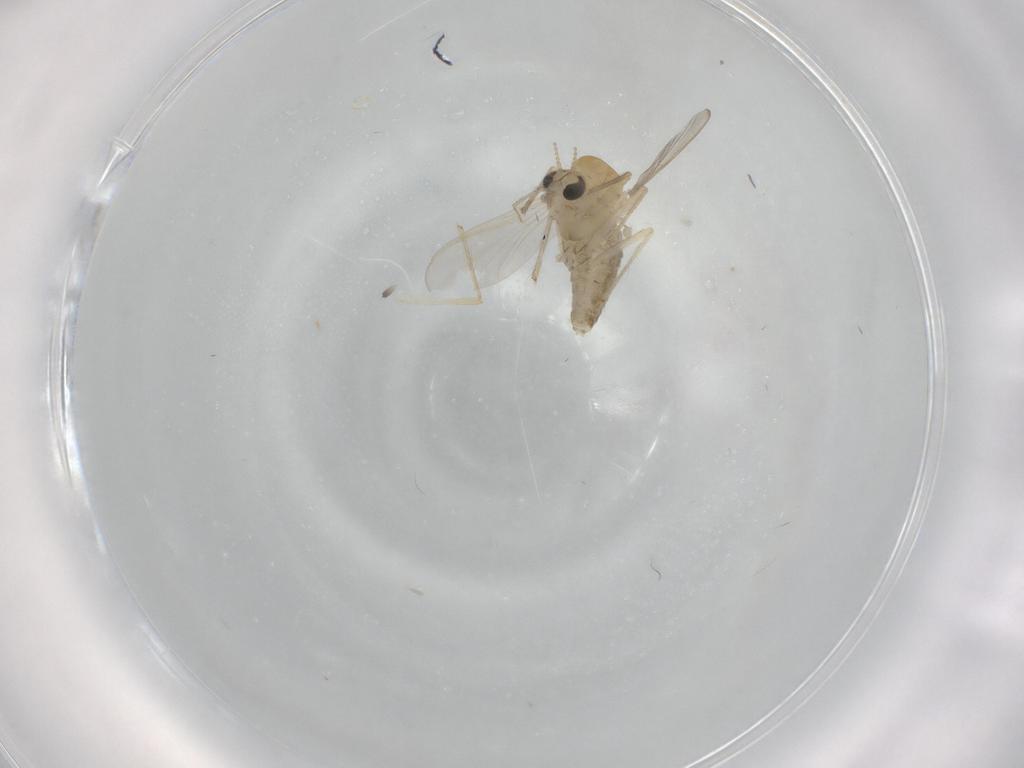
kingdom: Animalia
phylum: Arthropoda
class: Insecta
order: Diptera
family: Chironomidae
